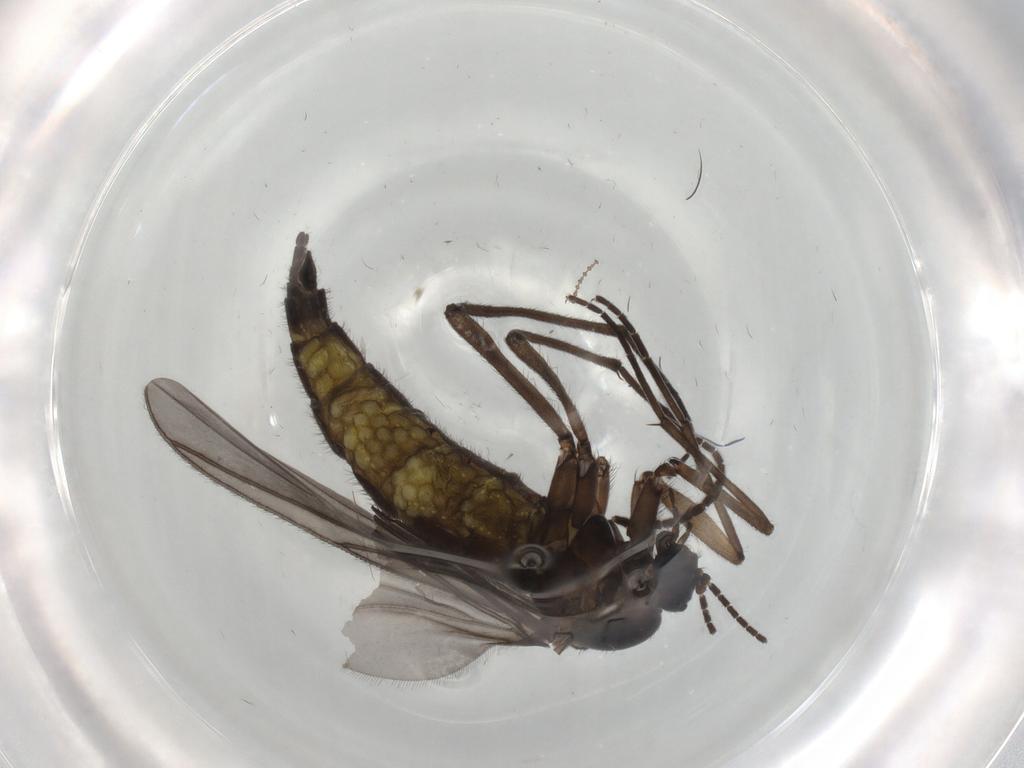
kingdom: Animalia
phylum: Arthropoda
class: Insecta
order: Diptera
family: Sciaridae
